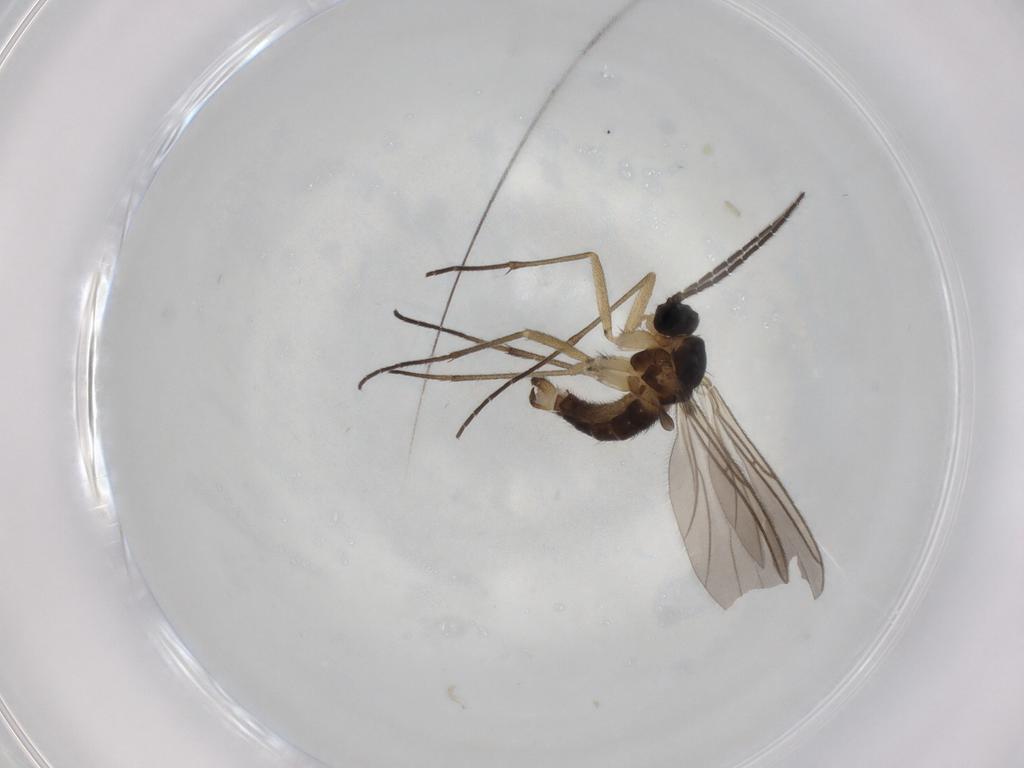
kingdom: Animalia
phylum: Arthropoda
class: Insecta
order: Diptera
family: Sciaridae
